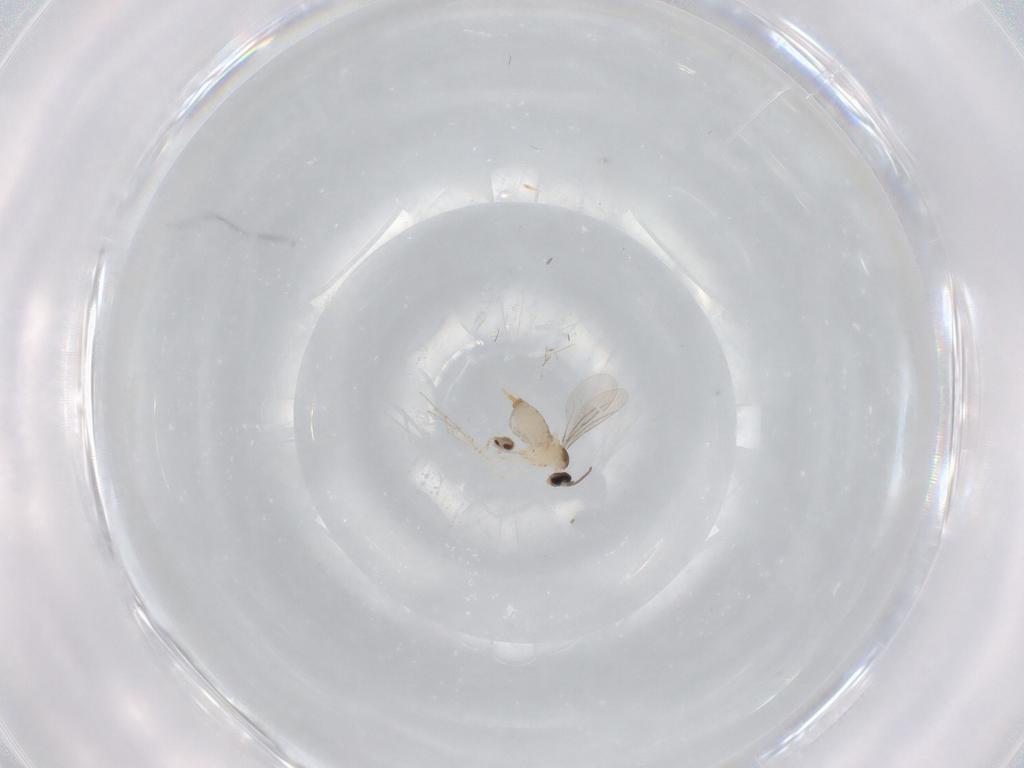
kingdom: Animalia
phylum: Arthropoda
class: Insecta
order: Diptera
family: Cecidomyiidae
